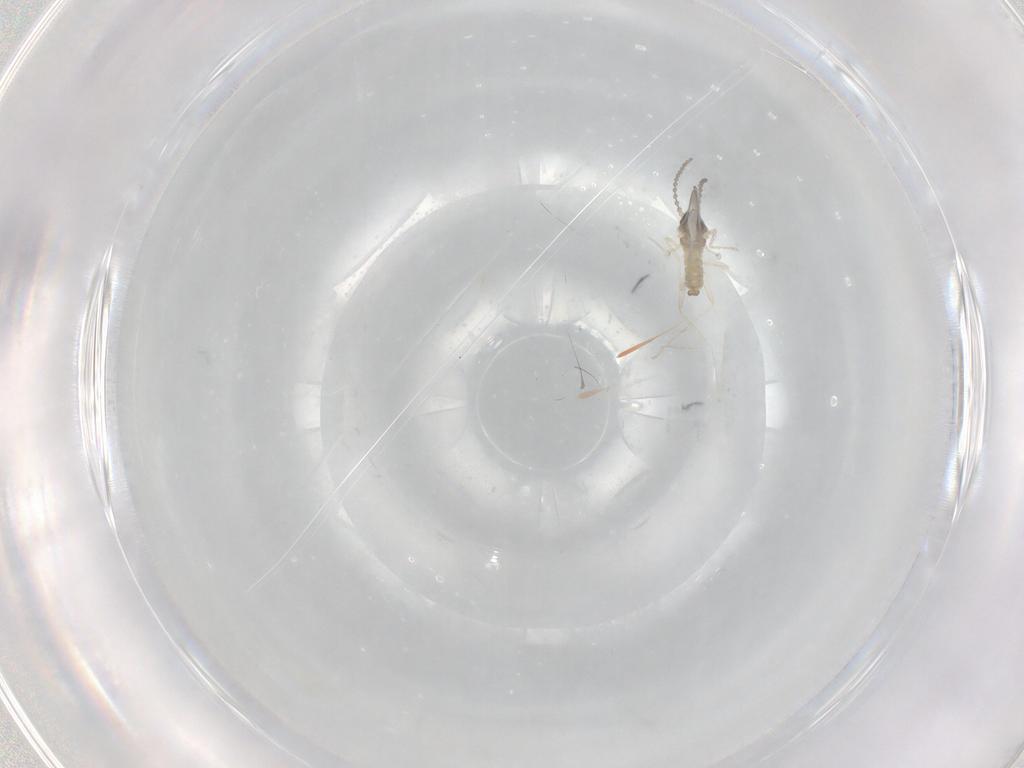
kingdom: Animalia
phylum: Arthropoda
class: Insecta
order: Diptera
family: Cecidomyiidae
